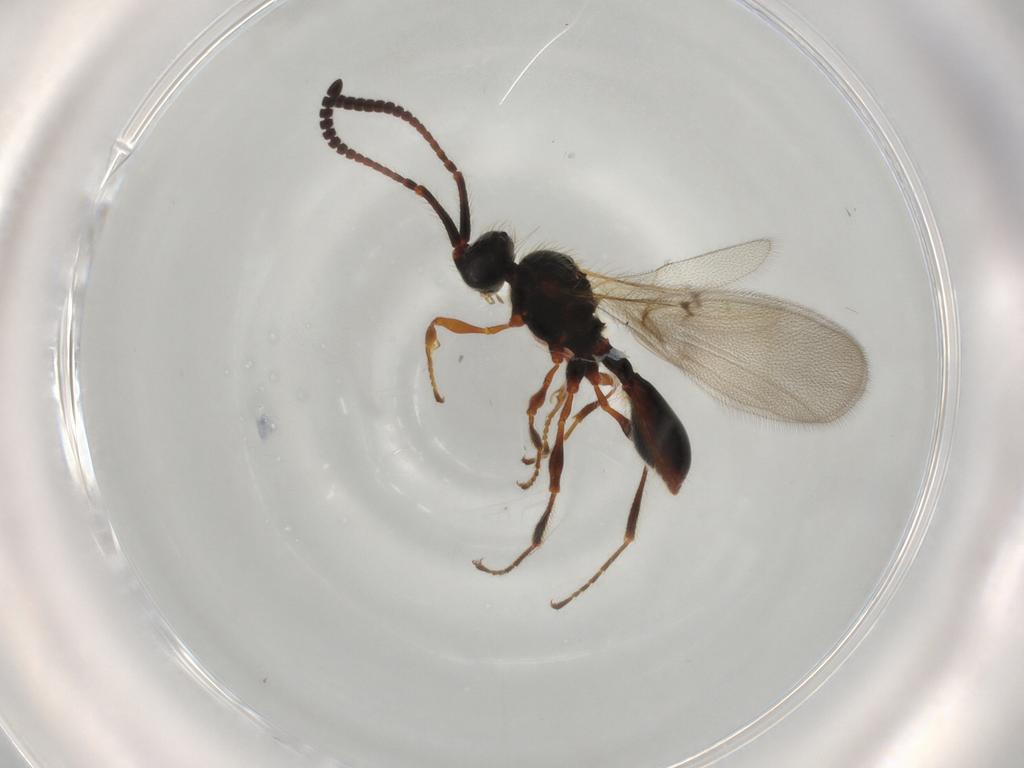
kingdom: Animalia
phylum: Arthropoda
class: Insecta
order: Hymenoptera
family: Diapriidae
